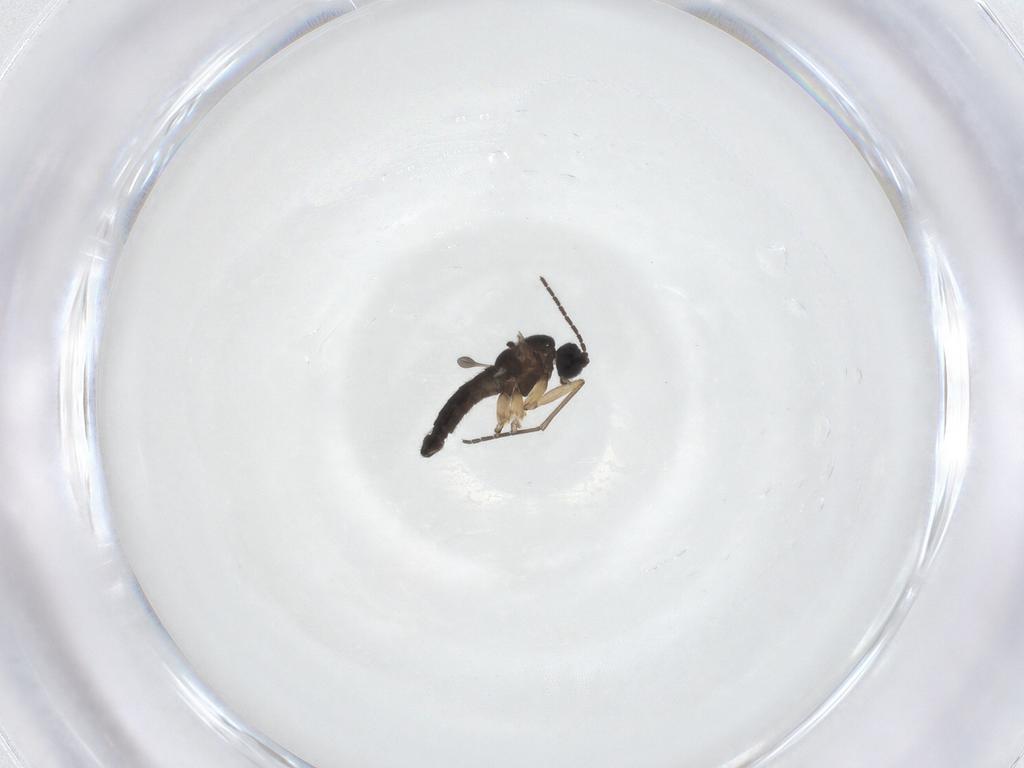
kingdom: Animalia
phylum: Arthropoda
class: Insecta
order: Diptera
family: Sciaridae
